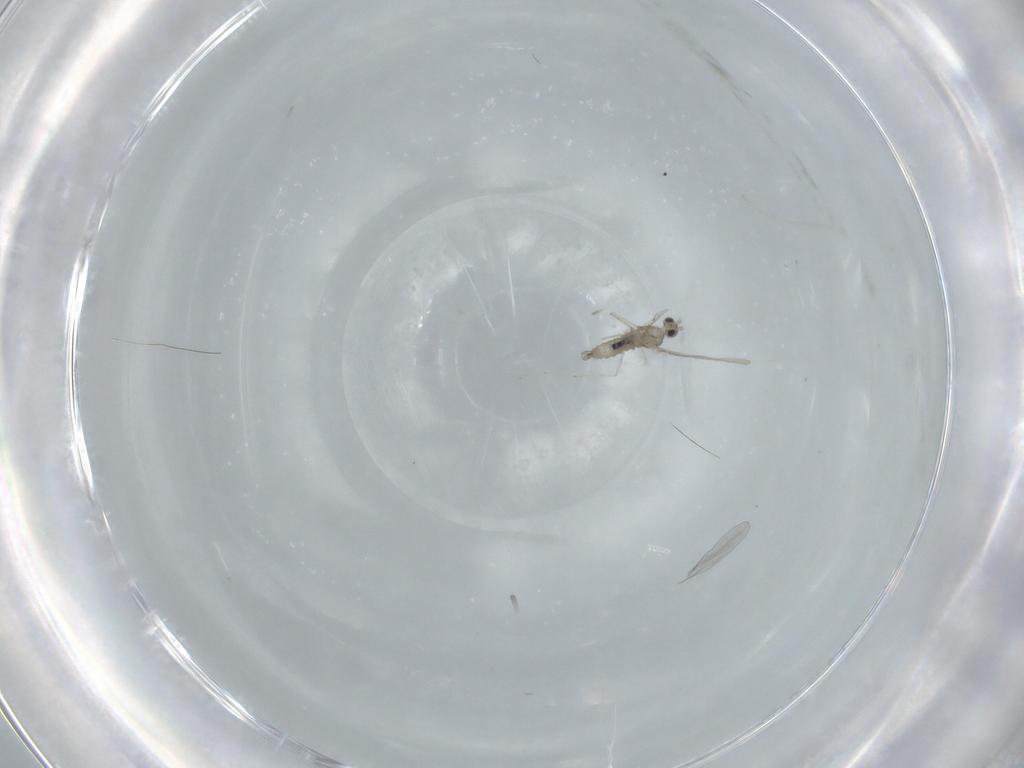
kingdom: Animalia
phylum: Arthropoda
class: Insecta
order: Diptera
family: Cecidomyiidae
